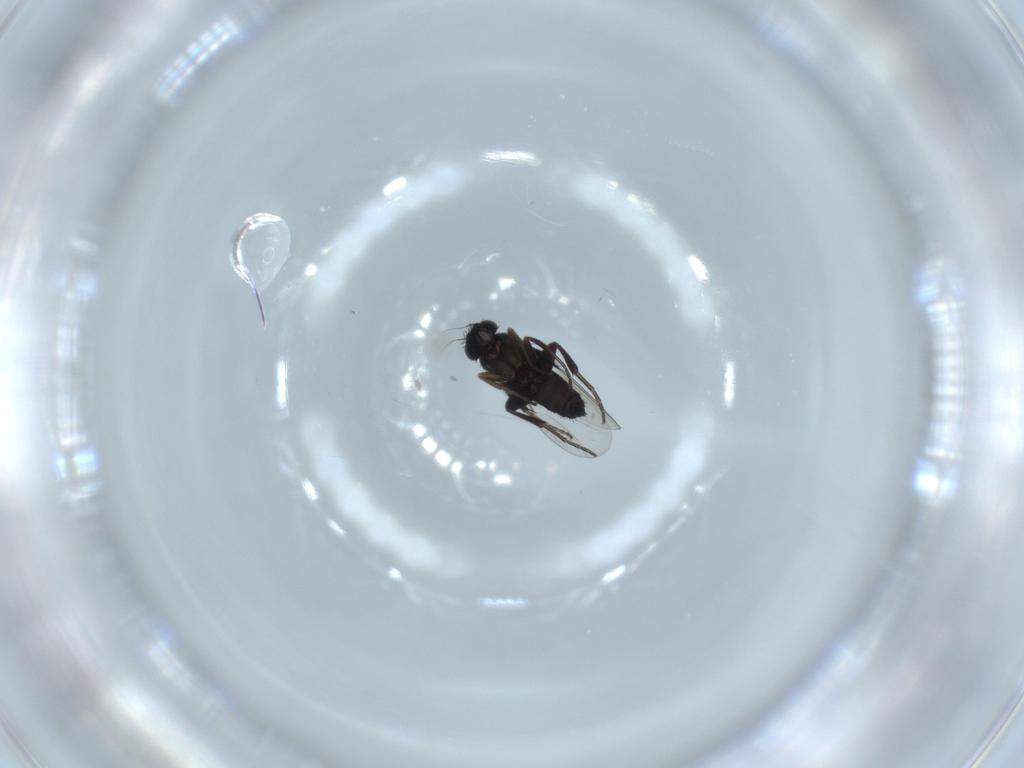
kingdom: Animalia
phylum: Arthropoda
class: Insecta
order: Diptera
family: Phoridae
